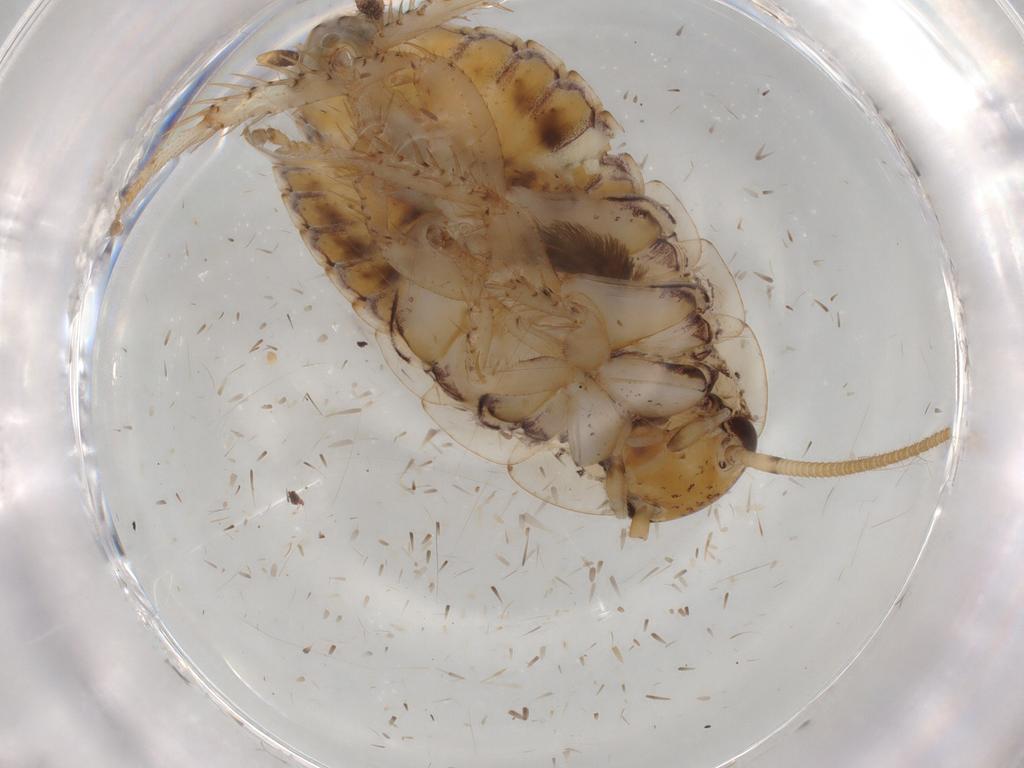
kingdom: Animalia
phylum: Arthropoda
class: Insecta
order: Blattodea
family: Blaberidae
